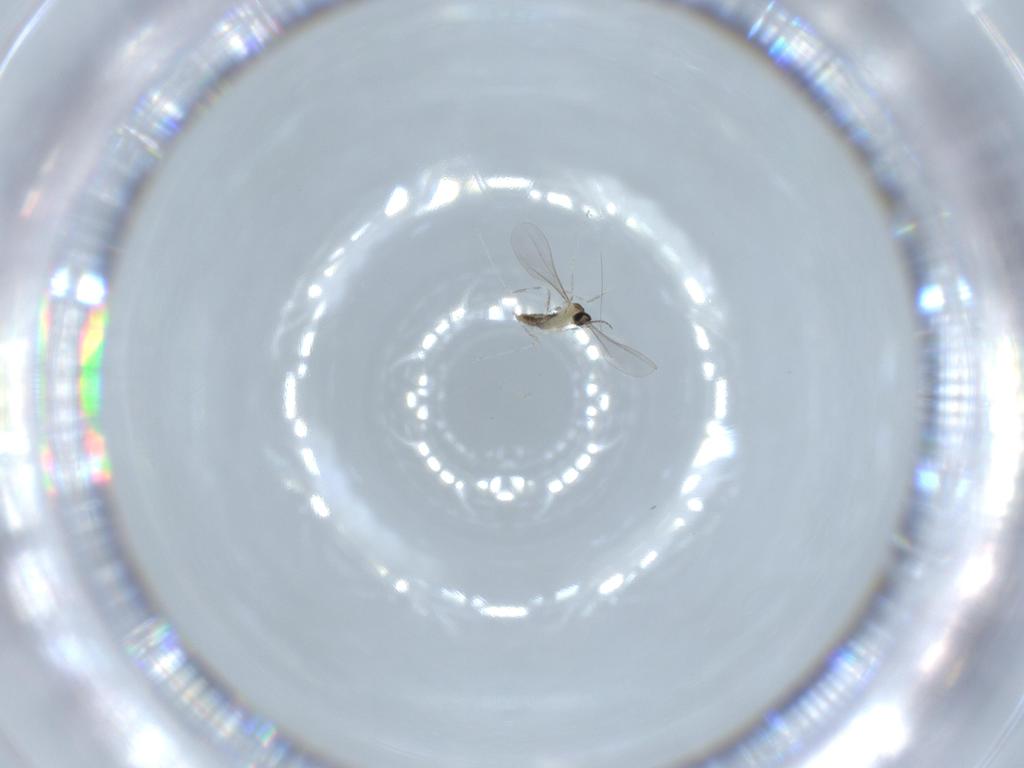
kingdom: Animalia
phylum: Arthropoda
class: Insecta
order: Diptera
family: Hybotidae
